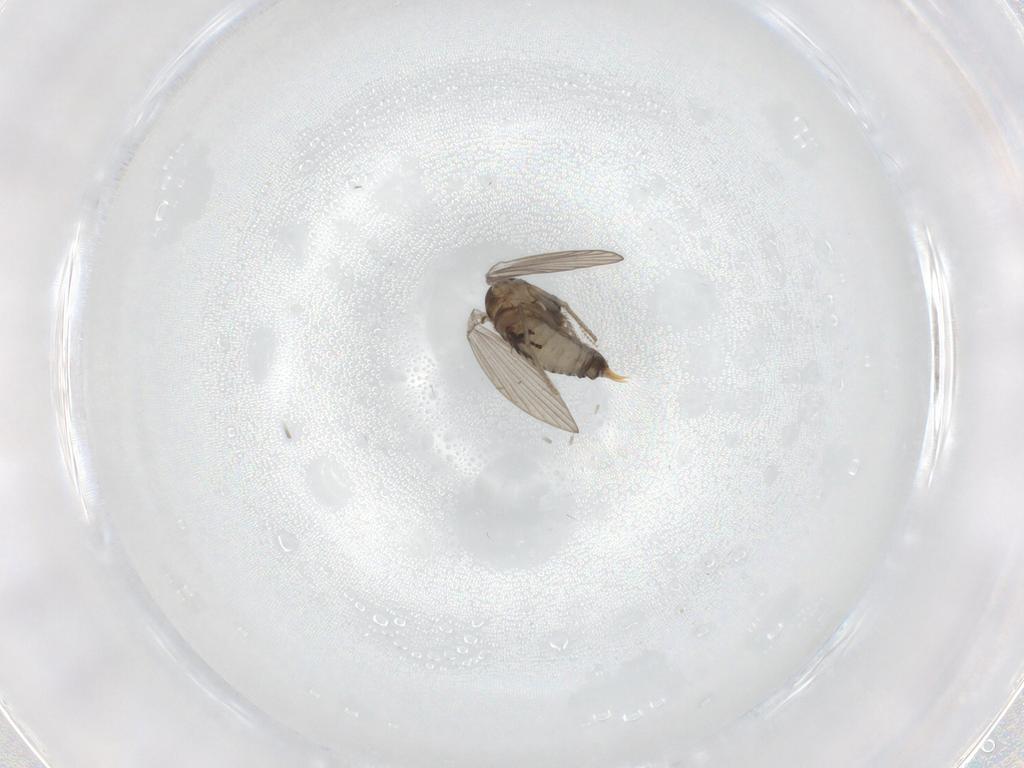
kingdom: Animalia
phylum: Arthropoda
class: Insecta
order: Diptera
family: Psychodidae
